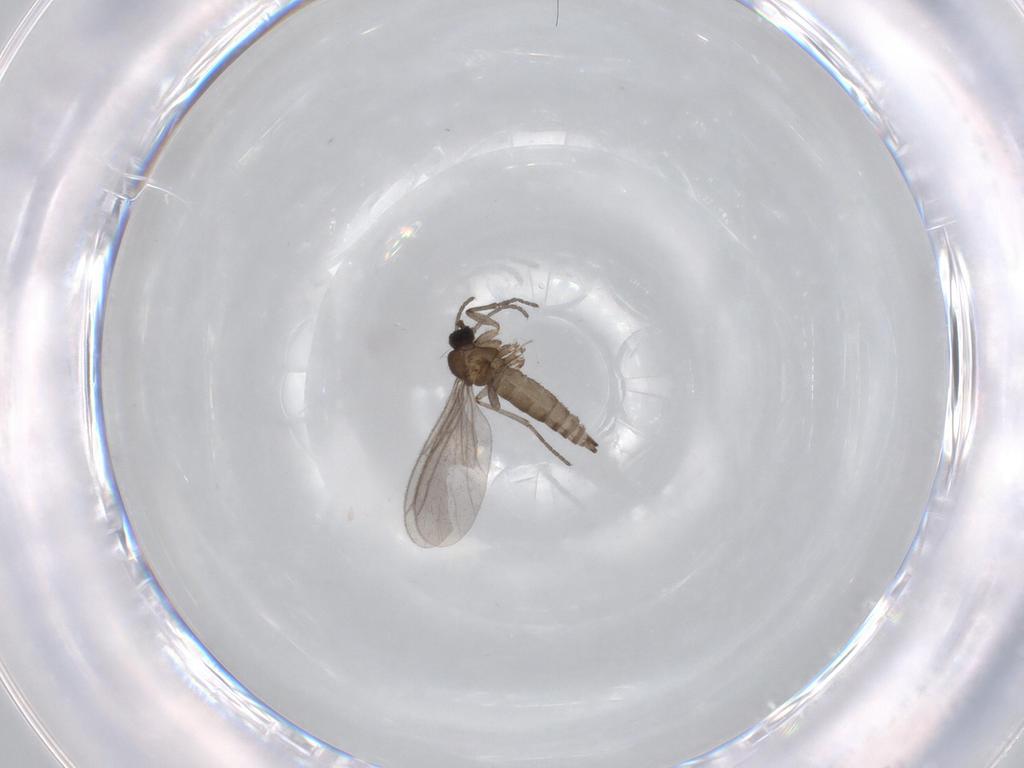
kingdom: Animalia
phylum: Arthropoda
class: Insecta
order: Diptera
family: Sciaridae
